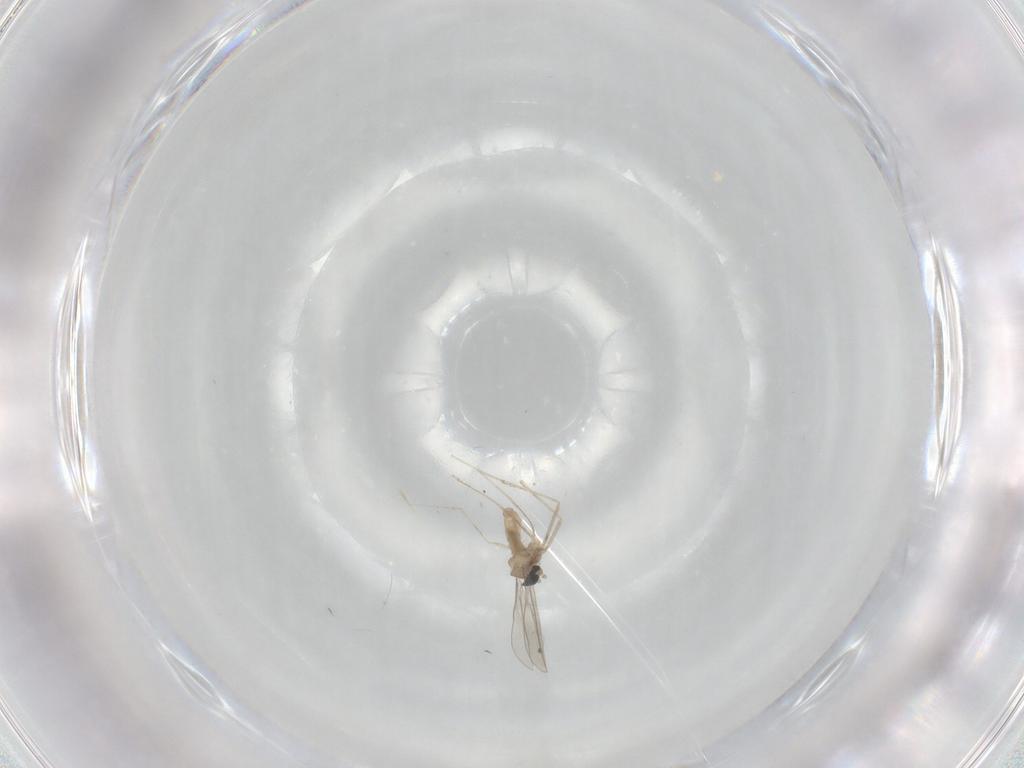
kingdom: Animalia
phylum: Arthropoda
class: Insecta
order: Diptera
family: Cecidomyiidae
